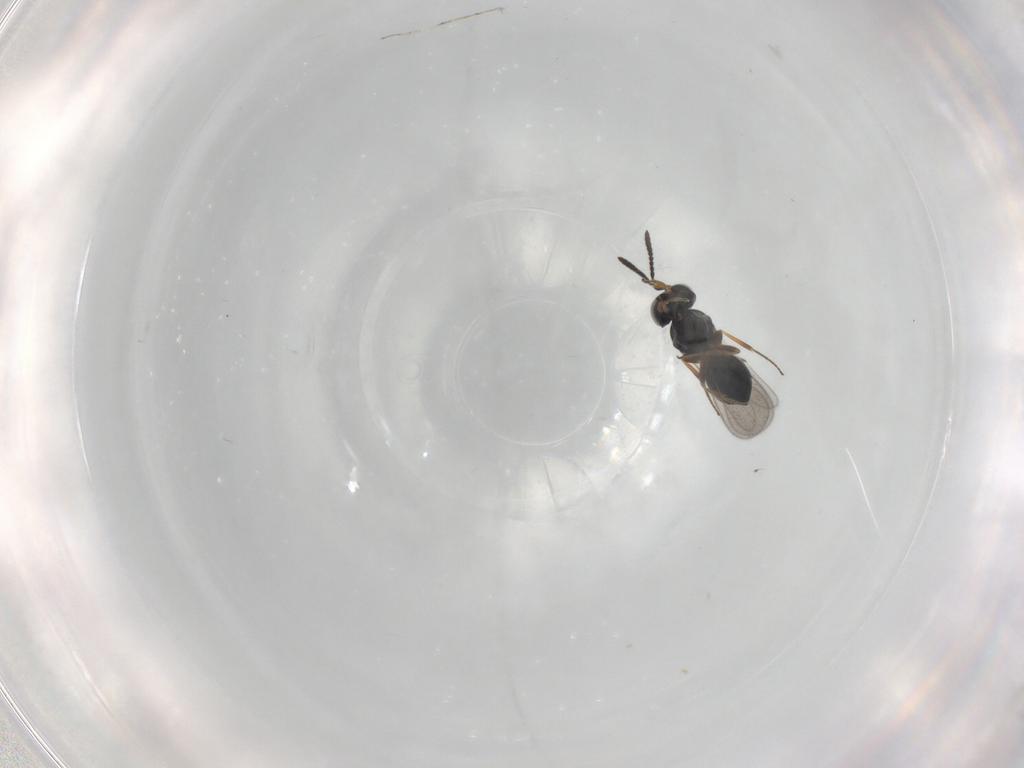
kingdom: Animalia
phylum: Arthropoda
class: Insecta
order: Hymenoptera
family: Scelionidae
